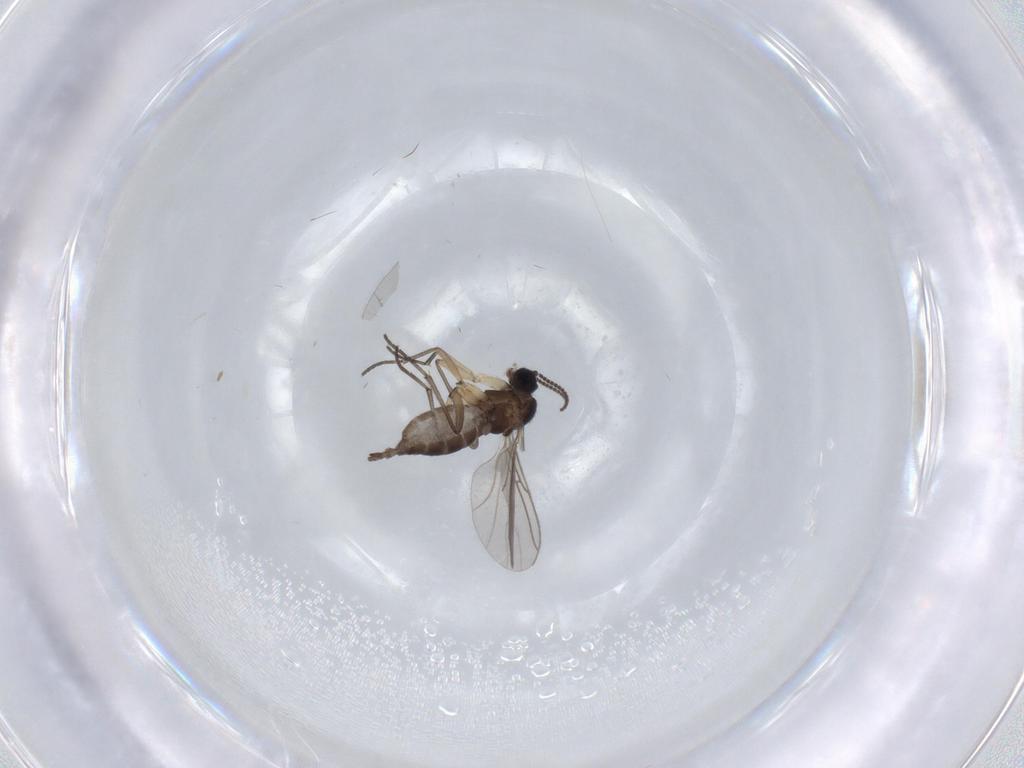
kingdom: Animalia
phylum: Arthropoda
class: Insecta
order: Diptera
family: Sciaridae
